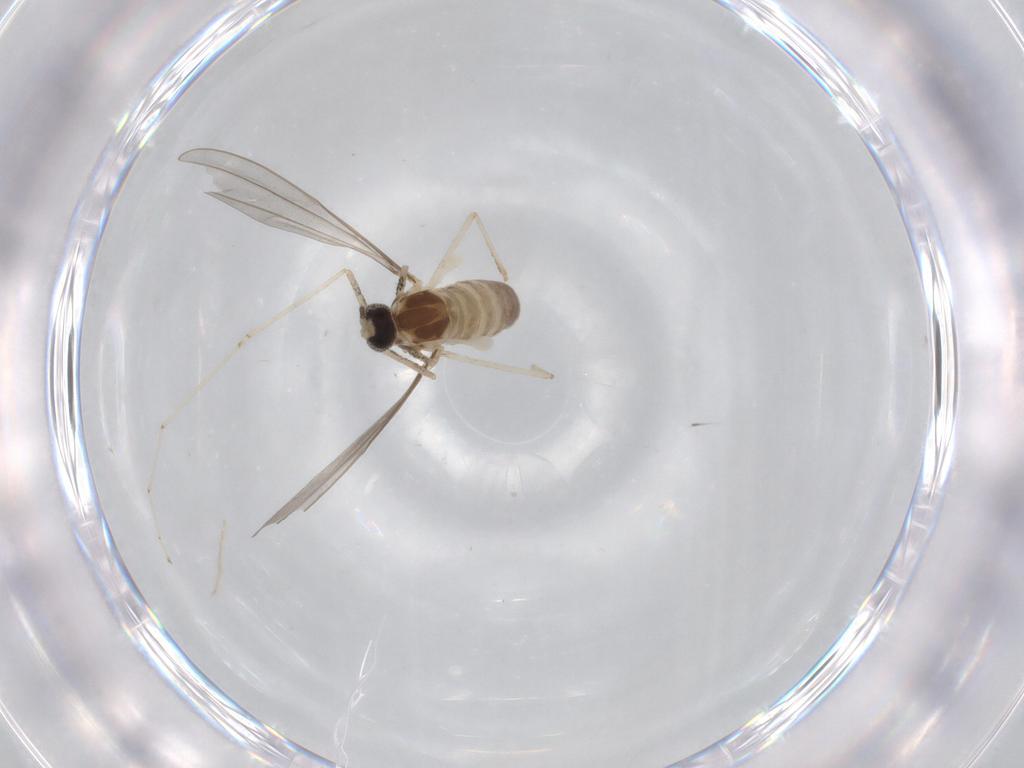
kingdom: Animalia
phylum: Arthropoda
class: Insecta
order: Diptera
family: Cecidomyiidae
